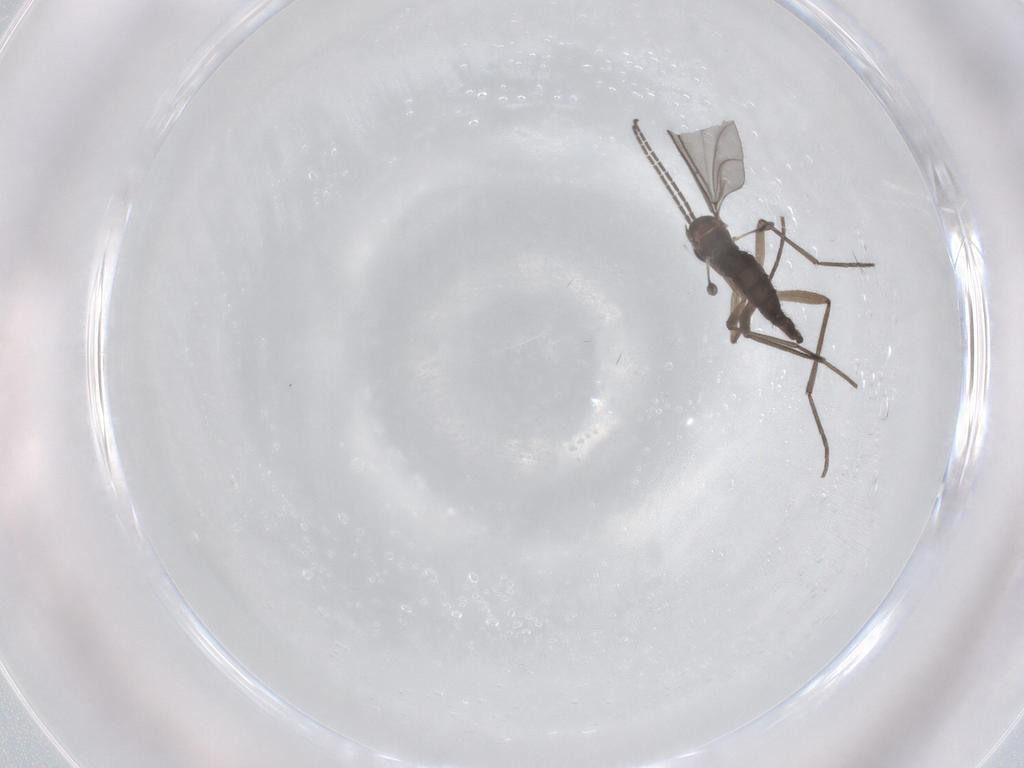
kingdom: Animalia
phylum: Arthropoda
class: Insecta
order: Diptera
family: Sciaridae
